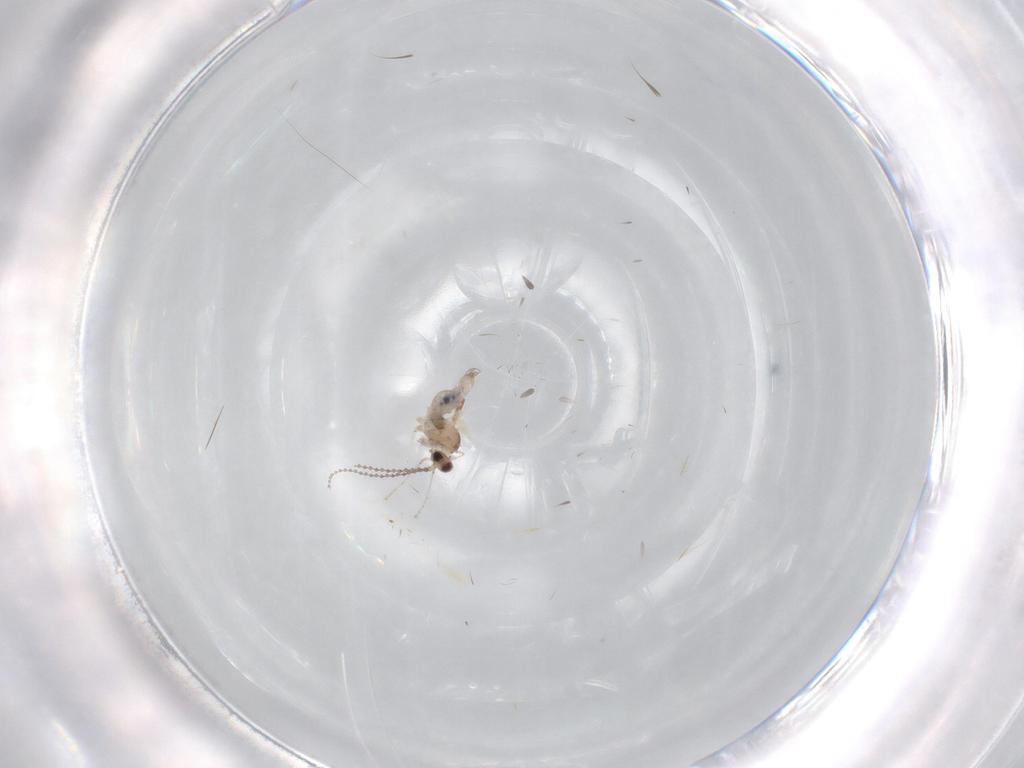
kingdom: Animalia
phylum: Arthropoda
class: Insecta
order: Diptera
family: Cecidomyiidae
